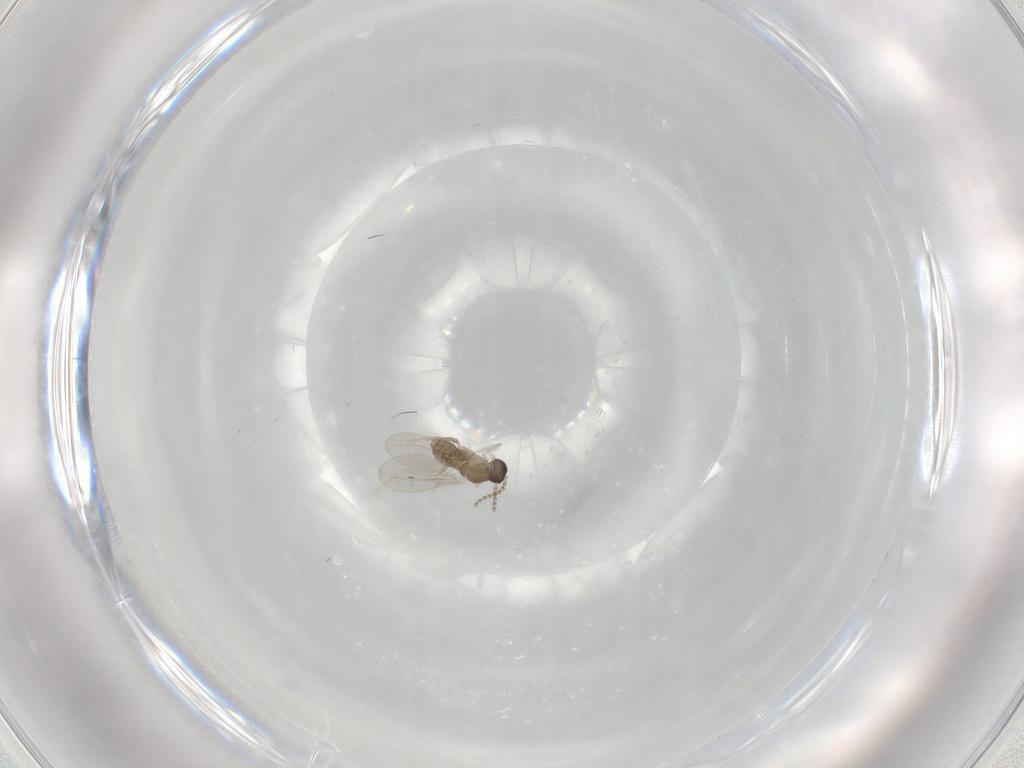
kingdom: Animalia
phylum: Arthropoda
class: Insecta
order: Diptera
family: Cecidomyiidae
